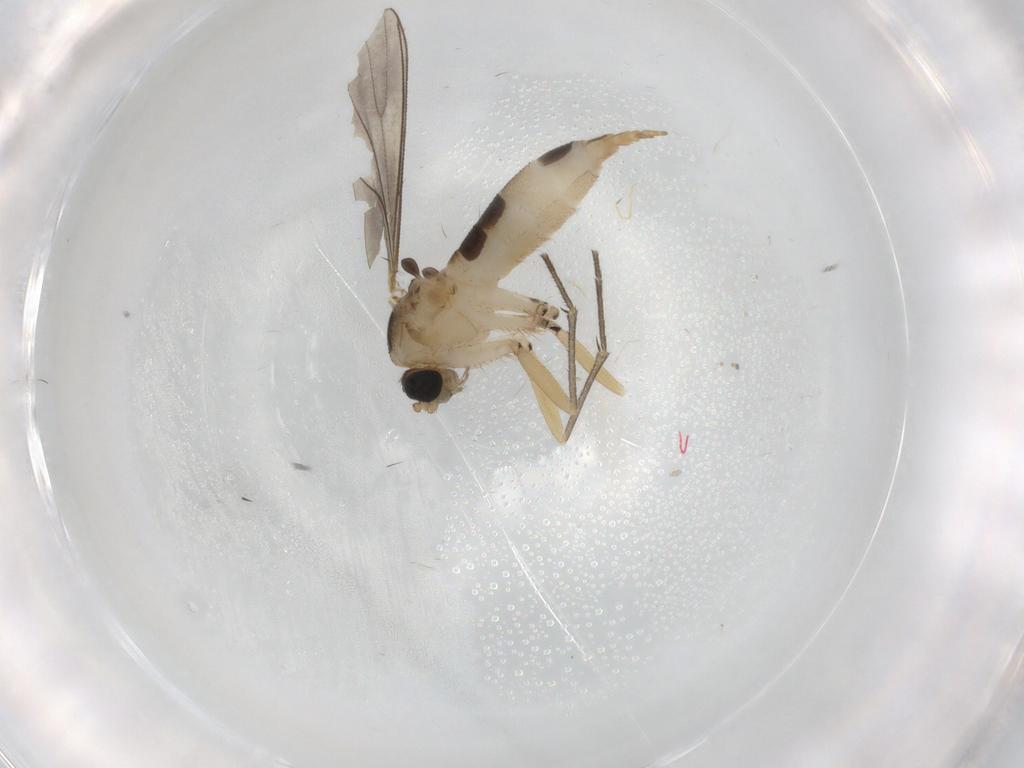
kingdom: Animalia
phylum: Arthropoda
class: Insecta
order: Diptera
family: Sciaridae
